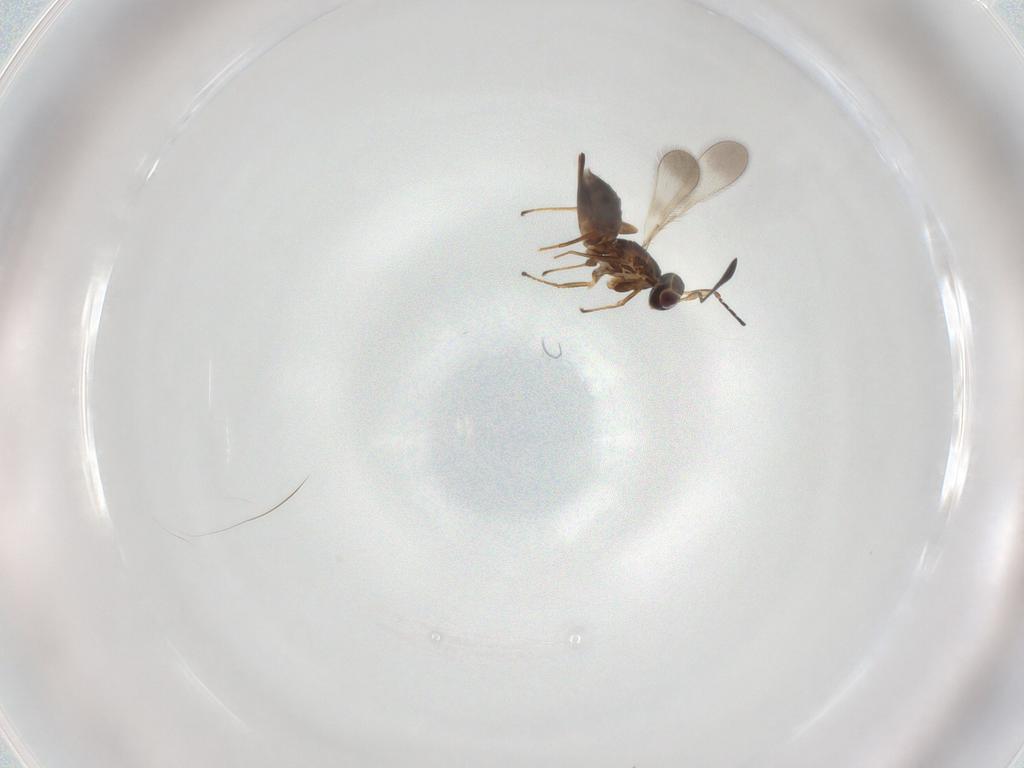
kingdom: Animalia
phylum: Arthropoda
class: Insecta
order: Hymenoptera
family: Mymaridae
